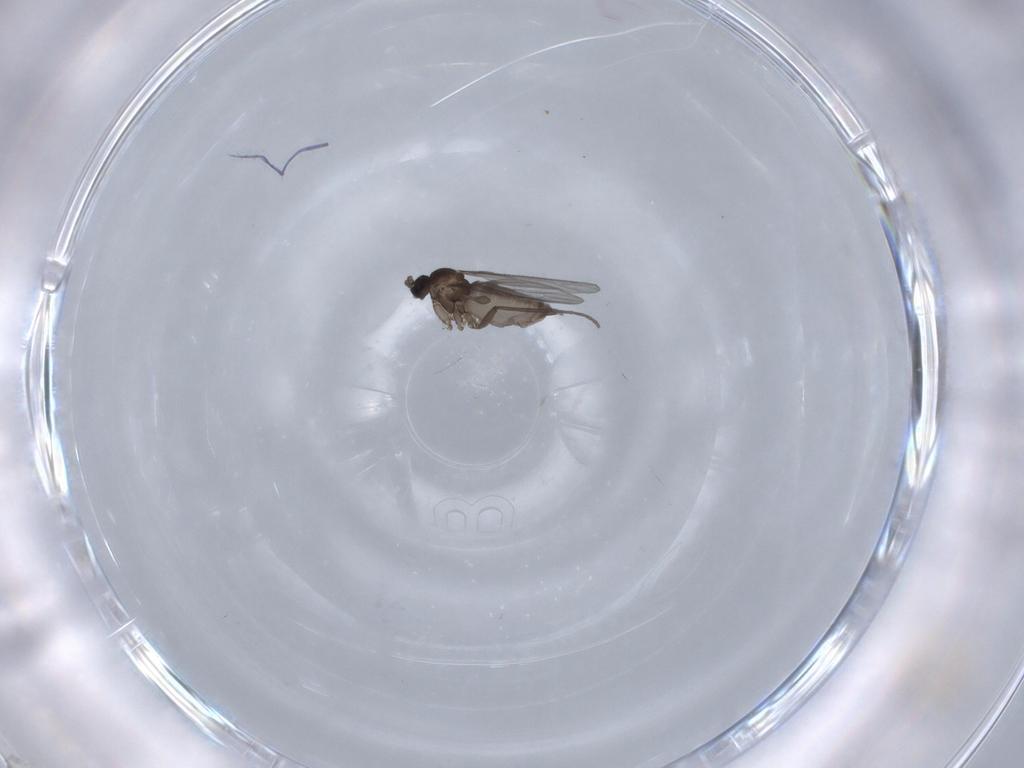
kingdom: Animalia
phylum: Arthropoda
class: Insecta
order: Diptera
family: Sciaridae
